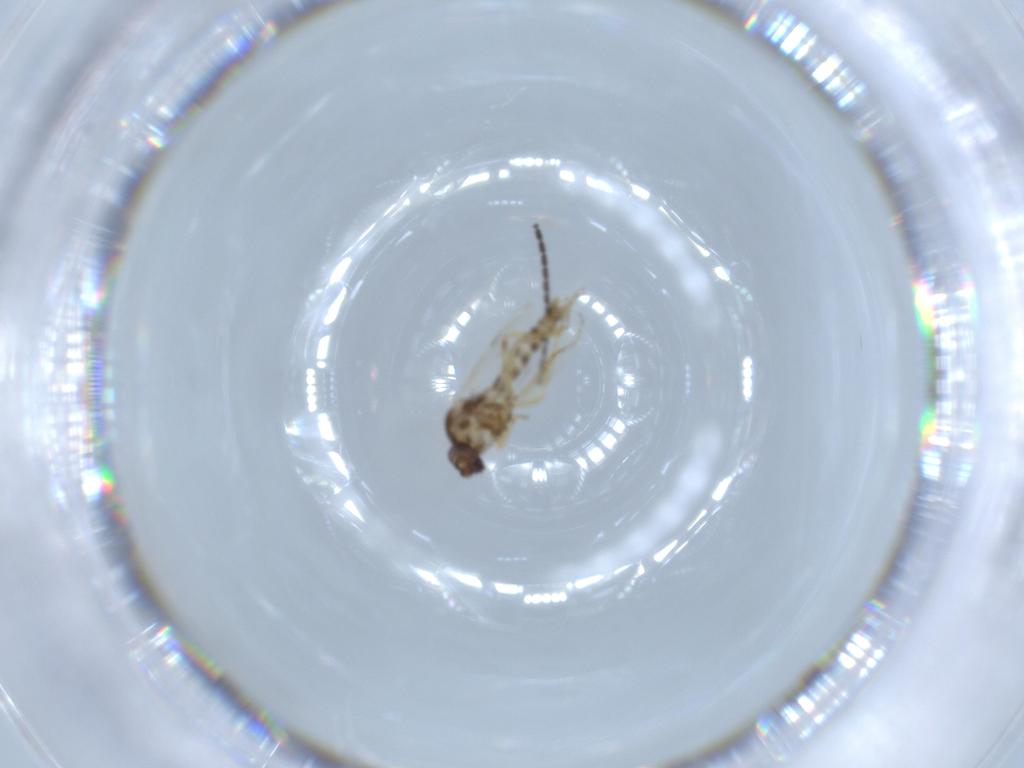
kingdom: Animalia
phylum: Arthropoda
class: Insecta
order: Diptera
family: Ceratopogonidae
